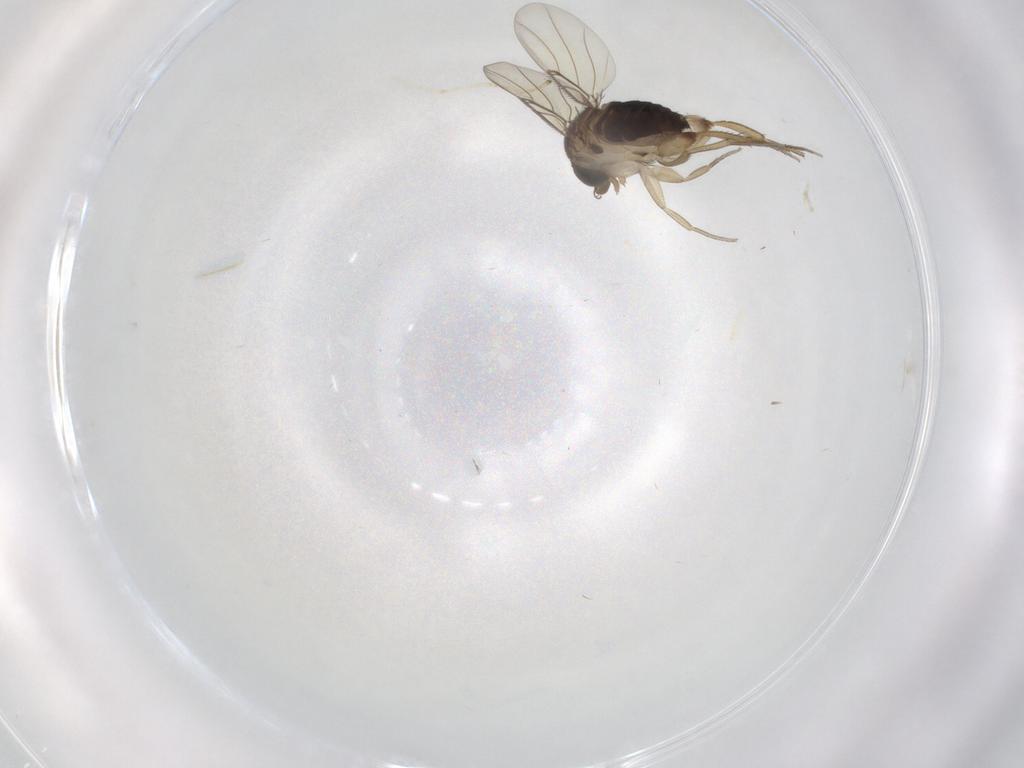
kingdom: Animalia
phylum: Arthropoda
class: Insecta
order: Diptera
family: Phoridae
